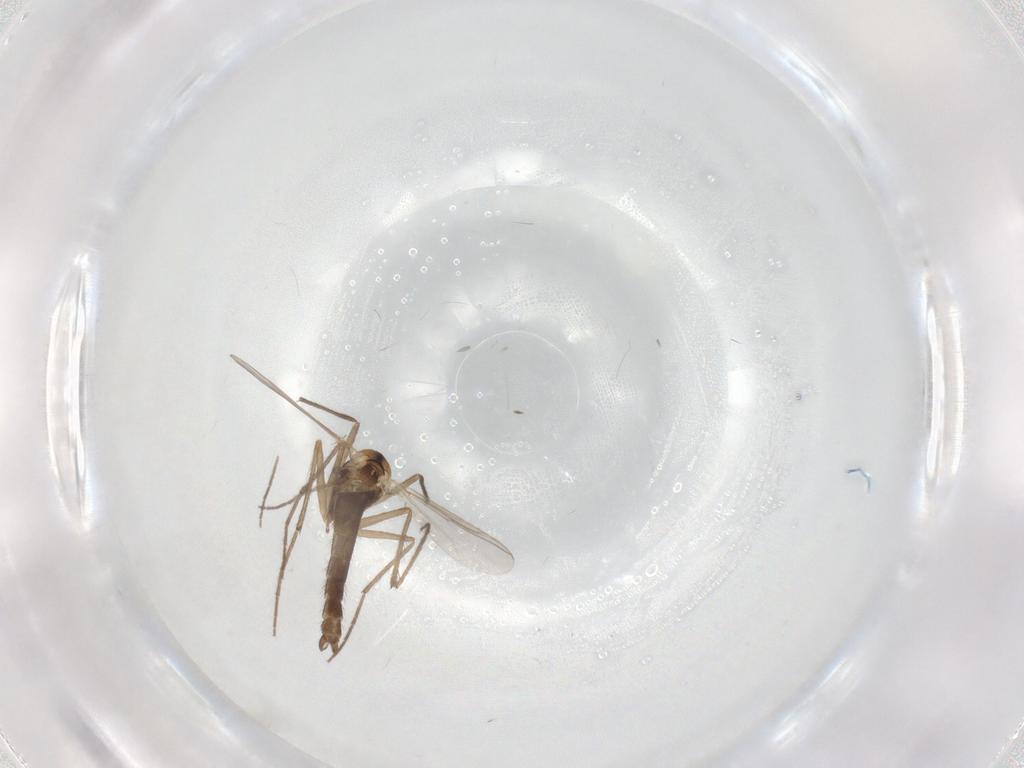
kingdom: Animalia
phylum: Arthropoda
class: Insecta
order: Diptera
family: Chironomidae
